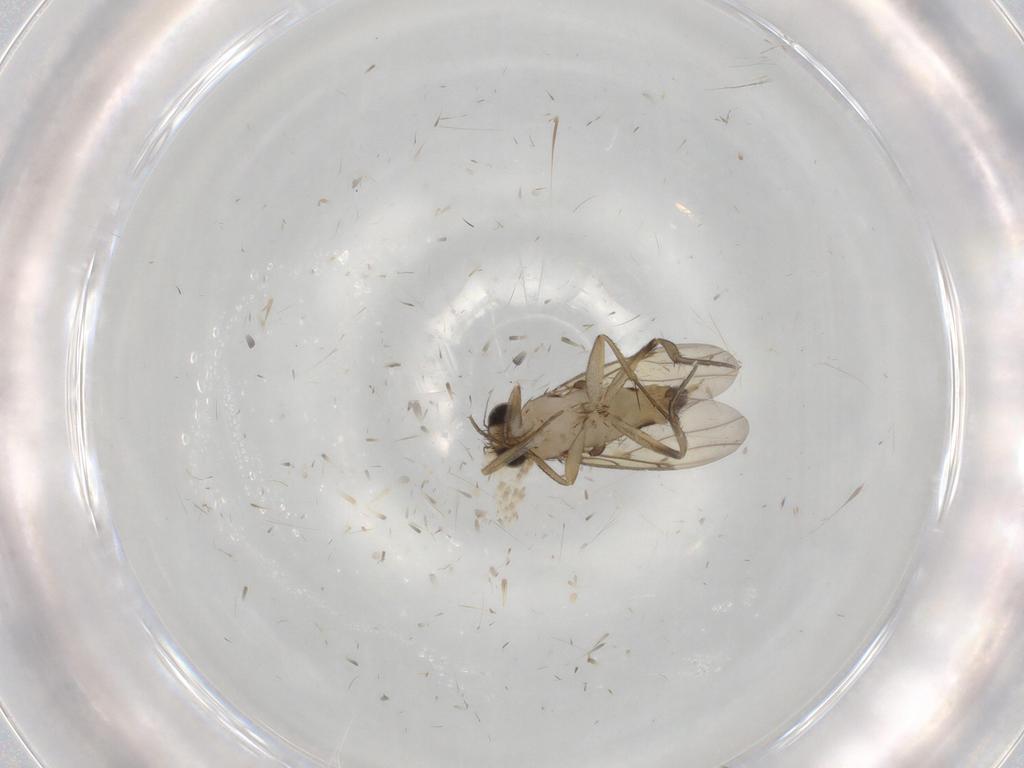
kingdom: Animalia
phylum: Arthropoda
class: Insecta
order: Diptera
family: Phoridae
